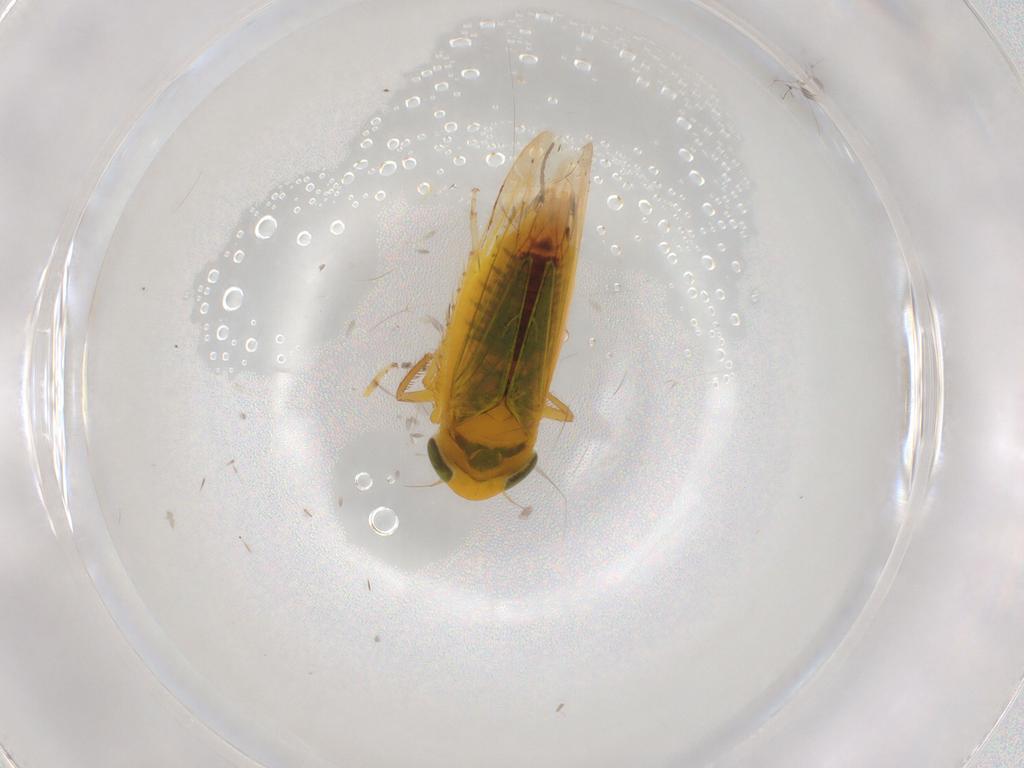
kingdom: Animalia
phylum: Arthropoda
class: Insecta
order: Hemiptera
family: Cicadellidae
